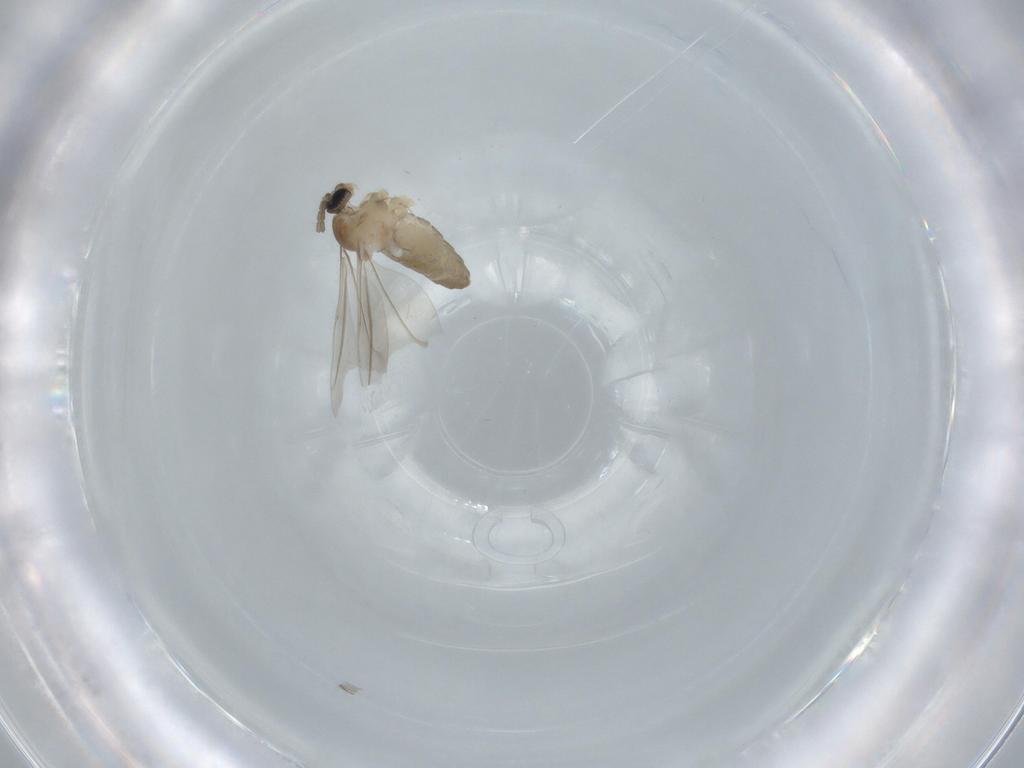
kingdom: Animalia
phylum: Arthropoda
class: Insecta
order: Diptera
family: Cecidomyiidae
